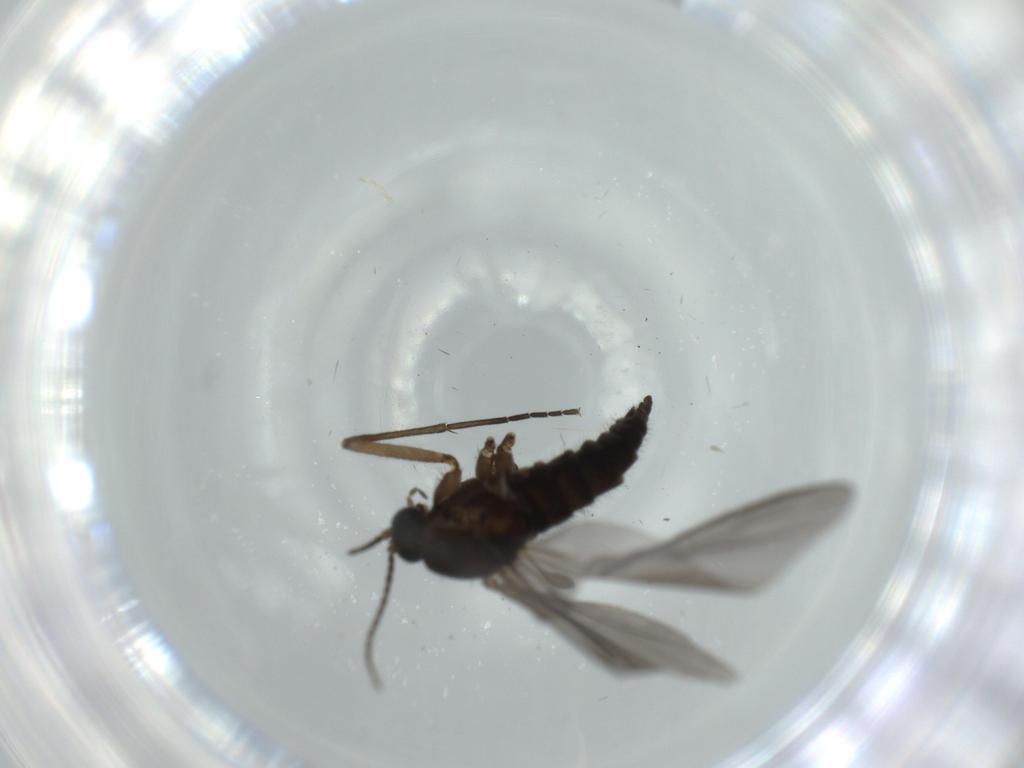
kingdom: Animalia
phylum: Arthropoda
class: Insecta
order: Diptera
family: Sciaridae
